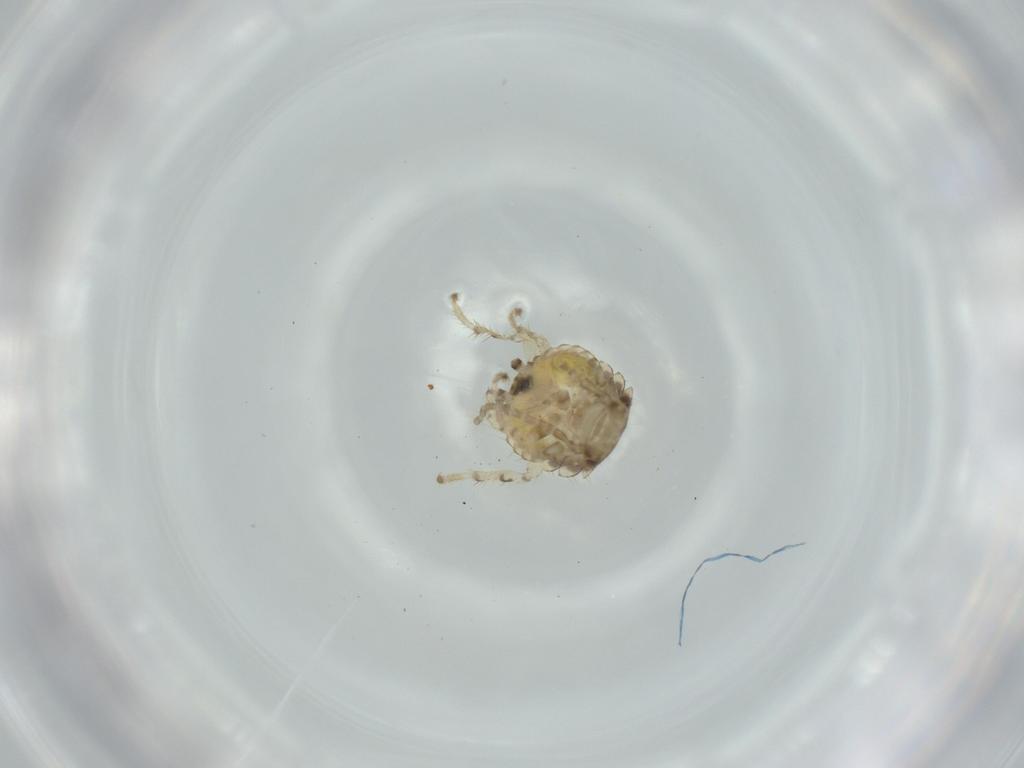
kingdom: Animalia
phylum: Arthropoda
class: Insecta
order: Blattodea
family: Ectobiidae
